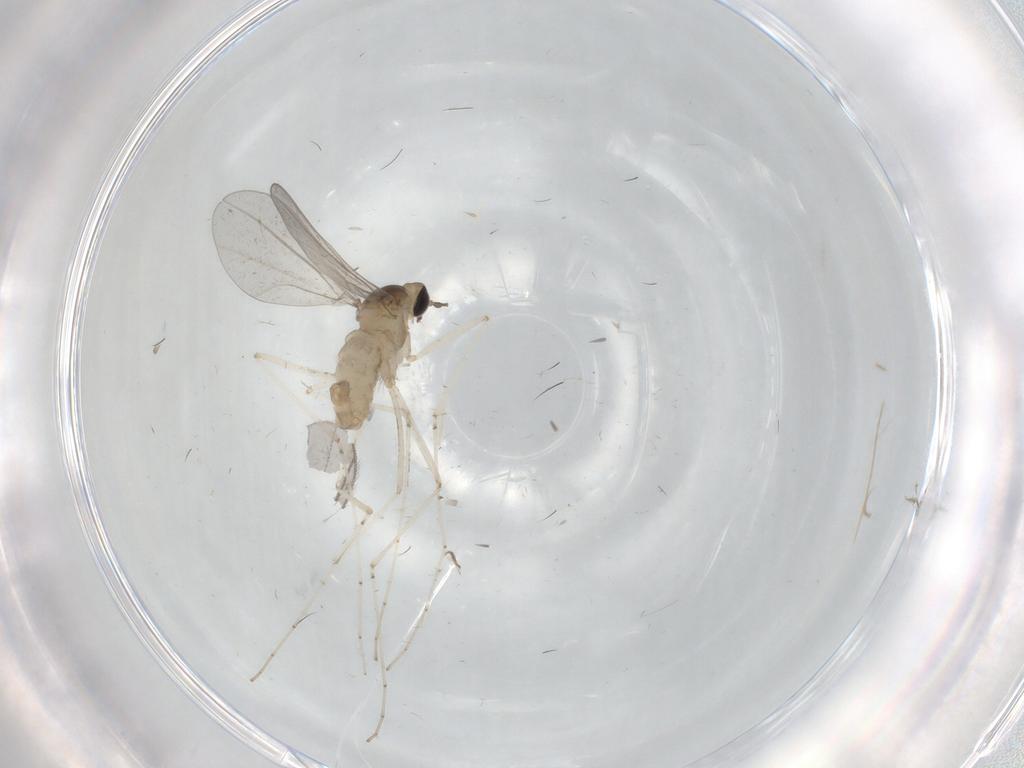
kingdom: Animalia
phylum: Arthropoda
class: Insecta
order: Diptera
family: Cecidomyiidae
